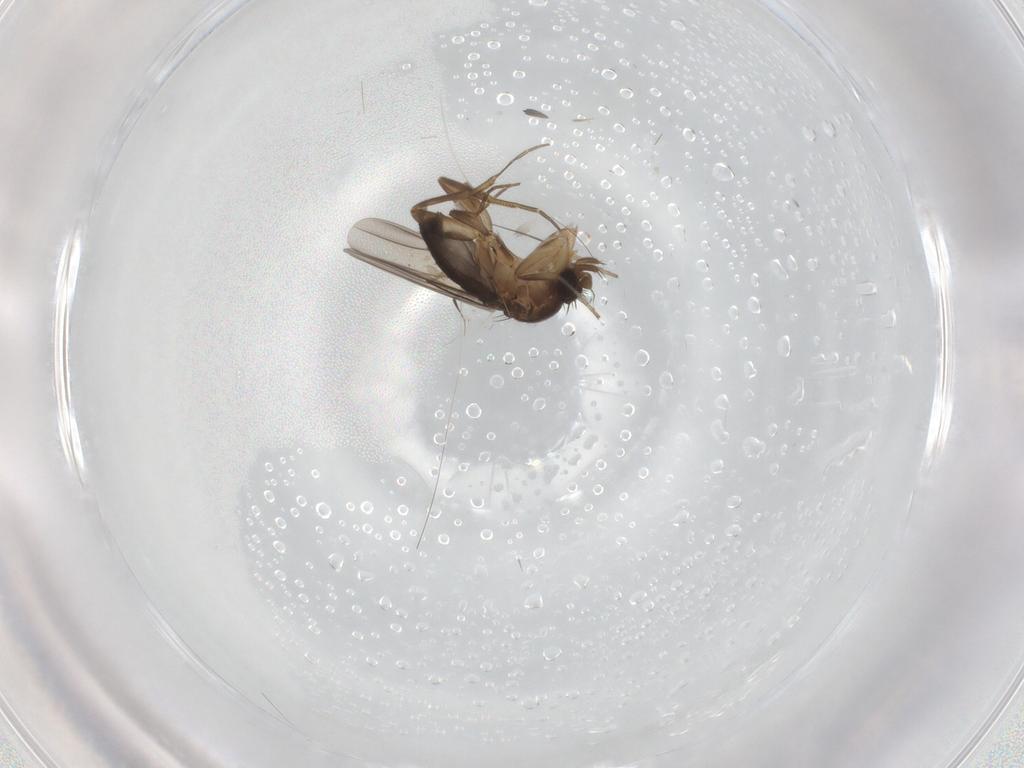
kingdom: Animalia
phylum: Arthropoda
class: Insecta
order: Diptera
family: Phoridae
